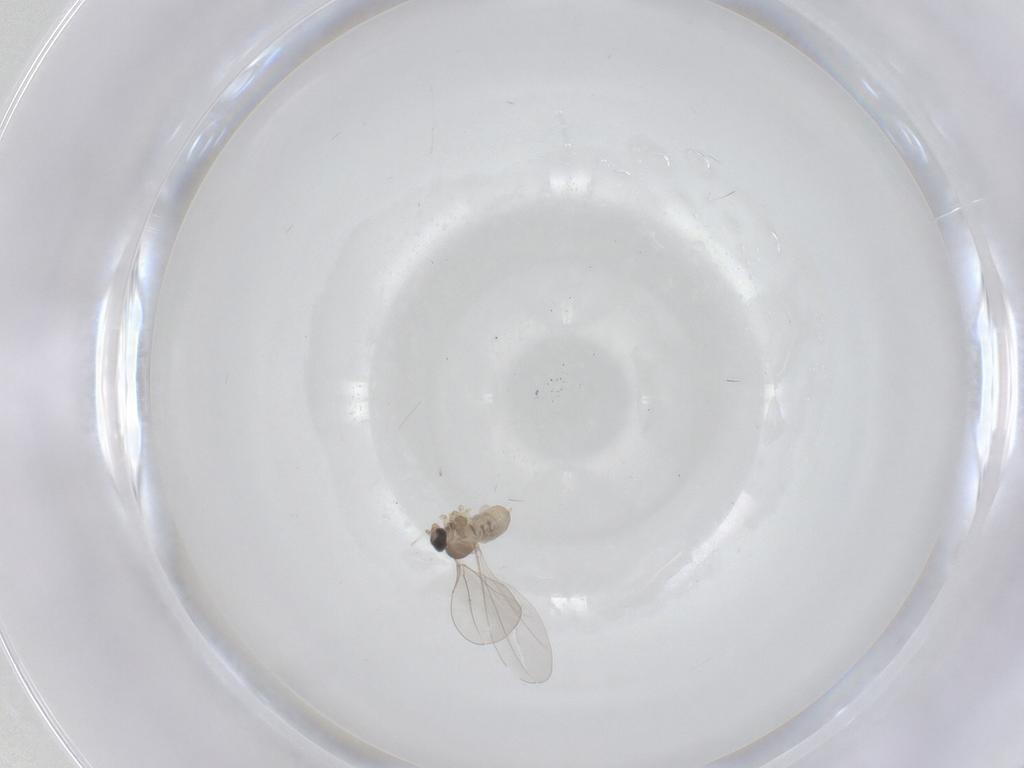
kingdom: Animalia
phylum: Arthropoda
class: Insecta
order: Diptera
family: Cecidomyiidae
